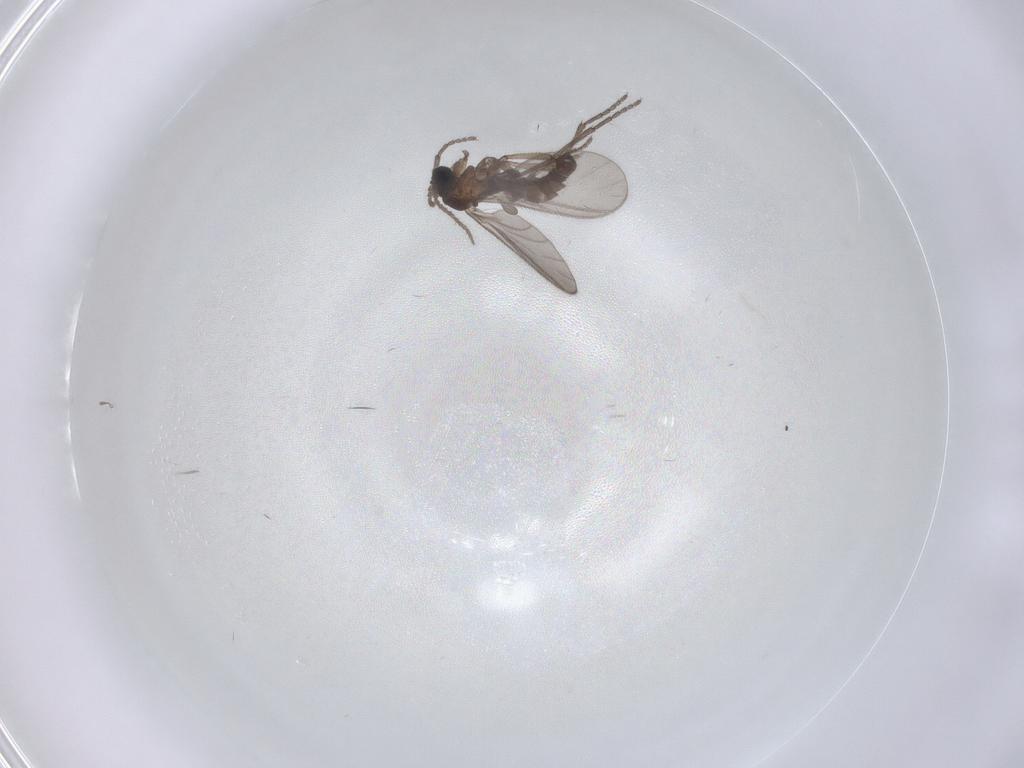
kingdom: Animalia
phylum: Arthropoda
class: Insecta
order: Diptera
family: Sciaridae
